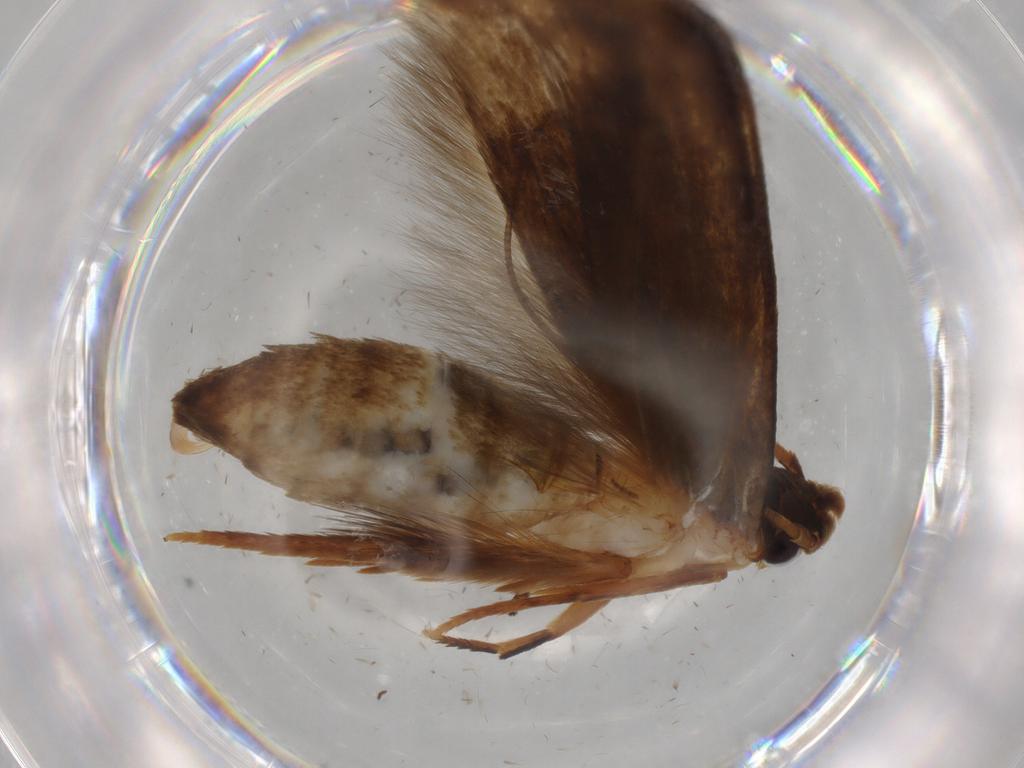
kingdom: Animalia
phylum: Arthropoda
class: Insecta
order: Lepidoptera
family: Tineidae
